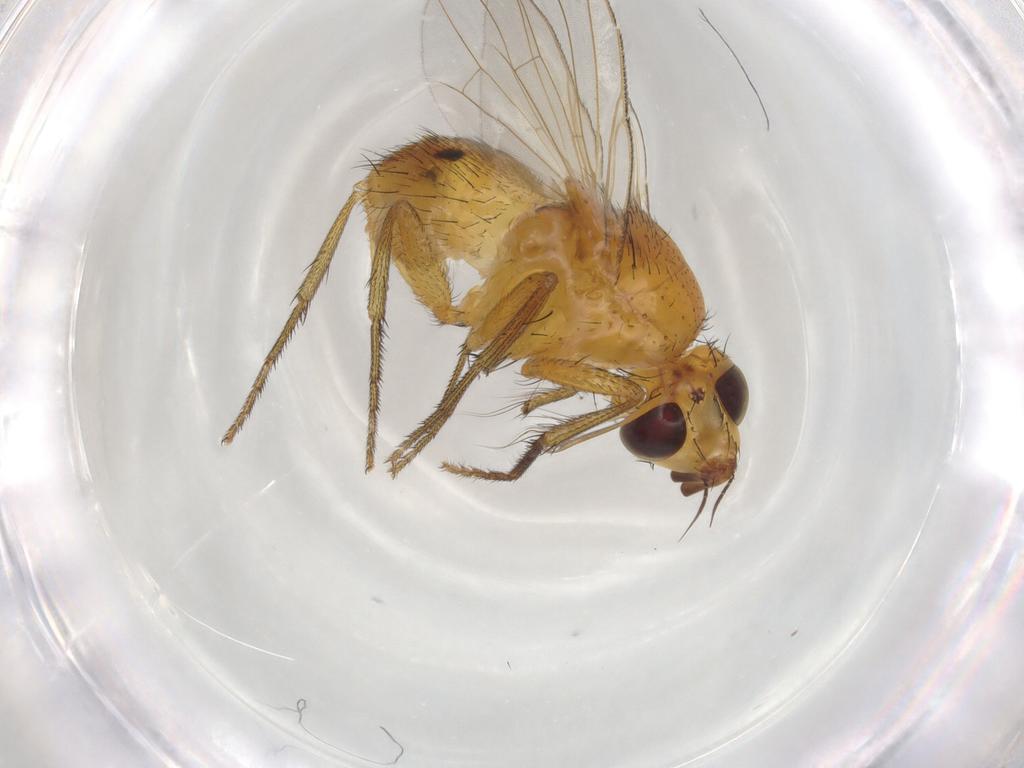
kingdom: Animalia
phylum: Arthropoda
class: Insecta
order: Diptera
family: Muscidae
